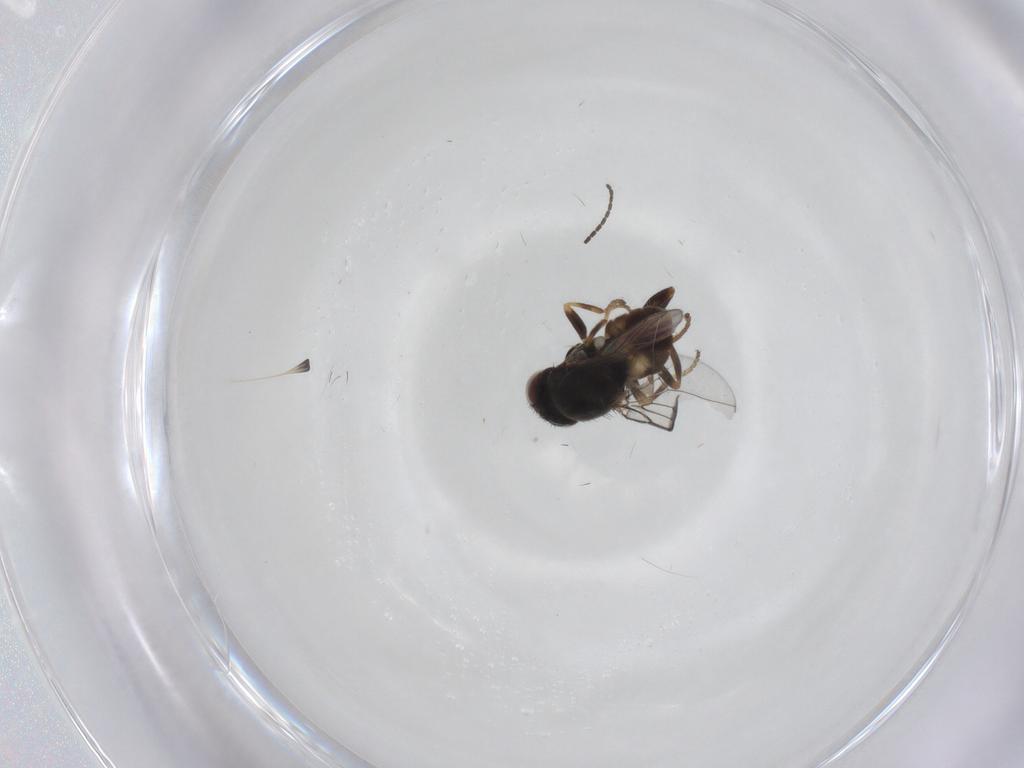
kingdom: Animalia
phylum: Arthropoda
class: Insecta
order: Diptera
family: Chloropidae
